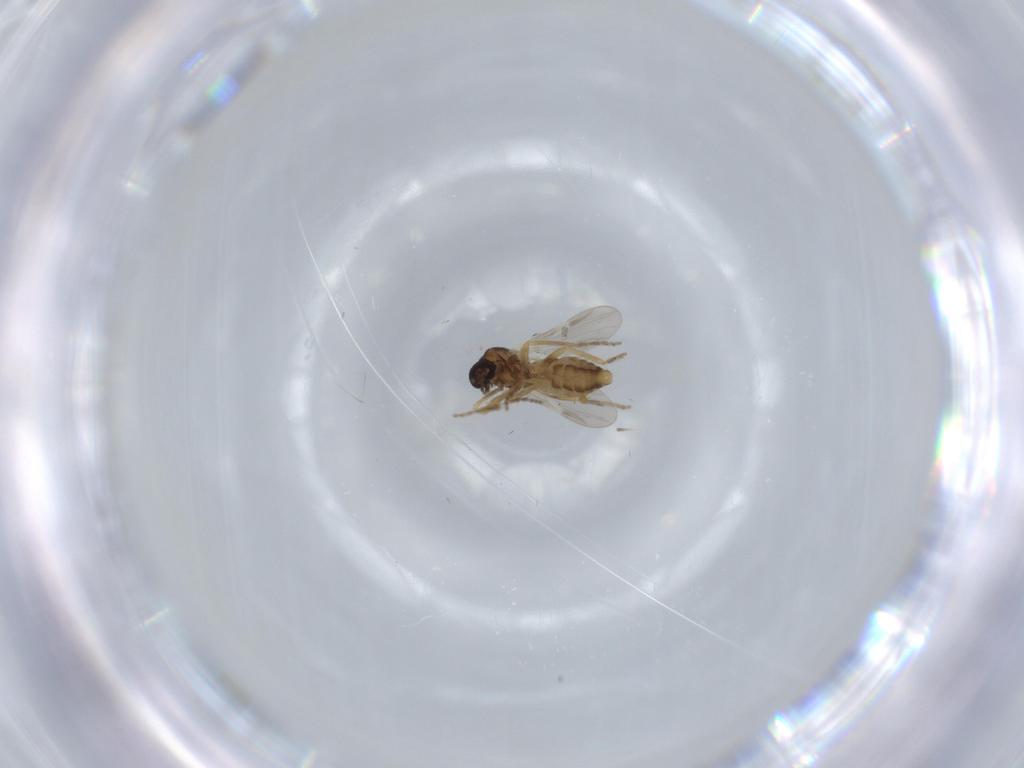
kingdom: Animalia
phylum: Arthropoda
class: Insecta
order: Diptera
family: Ceratopogonidae
